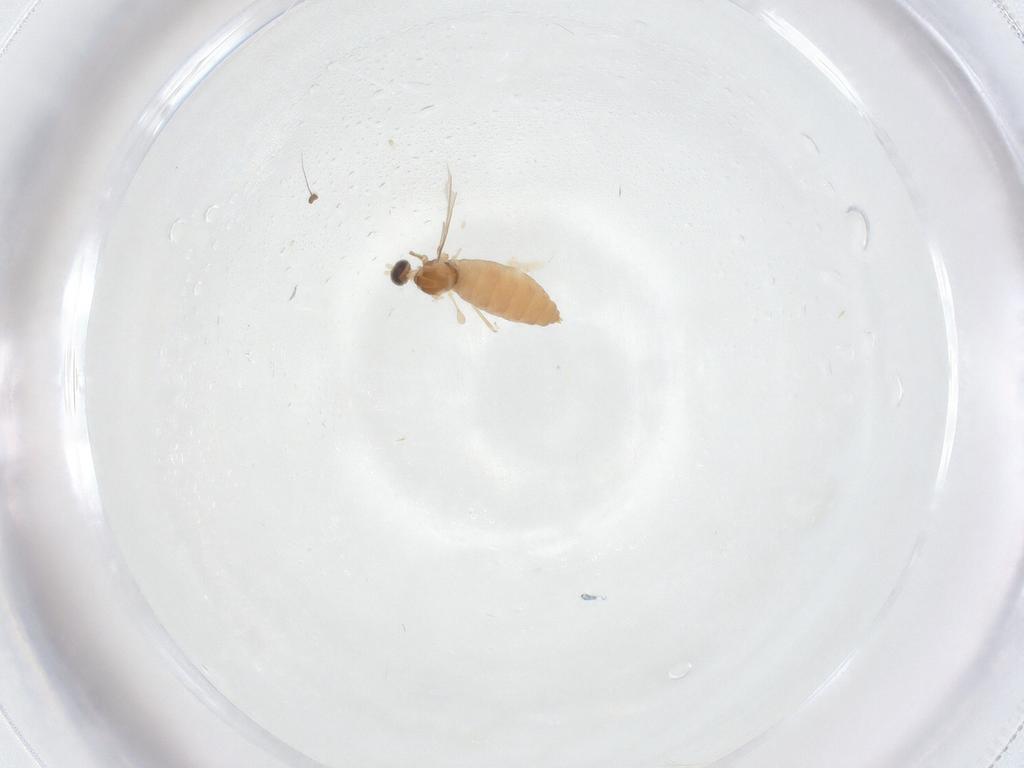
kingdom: Animalia
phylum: Arthropoda
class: Insecta
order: Diptera
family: Cecidomyiidae
